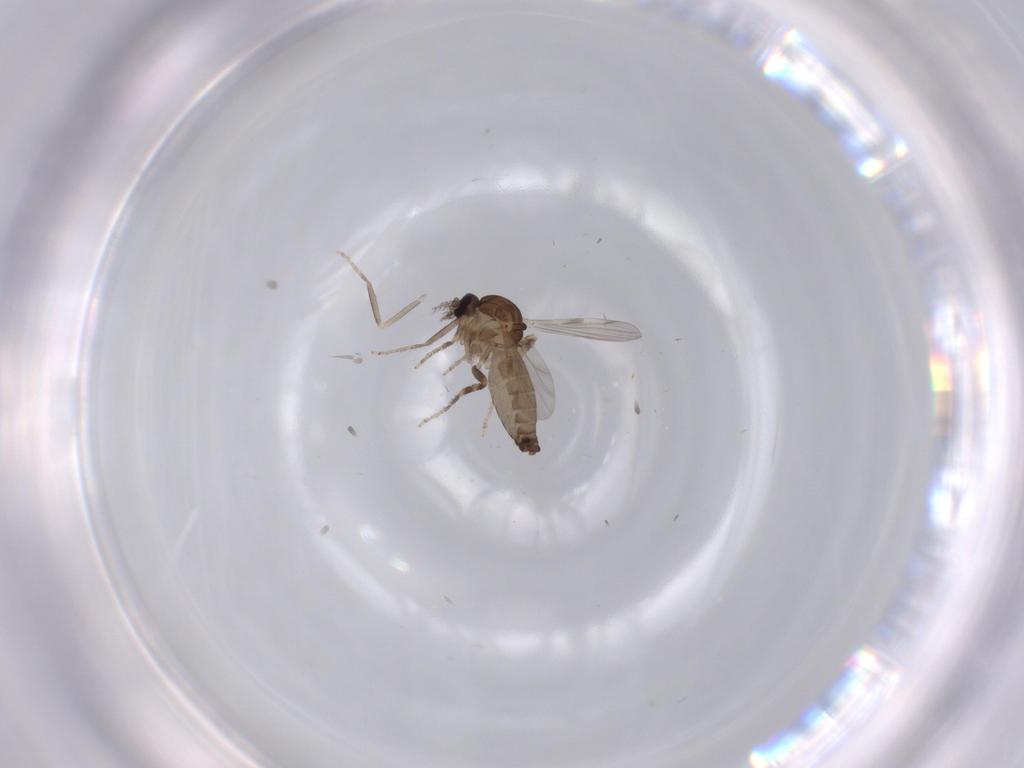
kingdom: Animalia
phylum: Arthropoda
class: Insecta
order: Diptera
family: Ceratopogonidae
